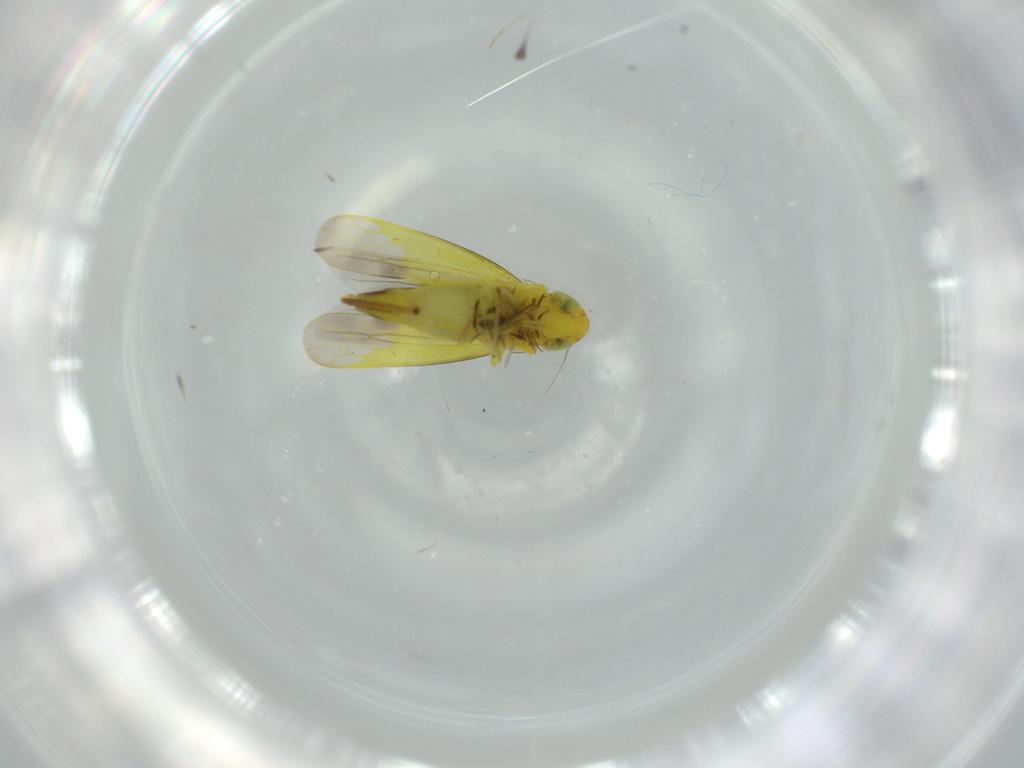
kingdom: Animalia
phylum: Arthropoda
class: Insecta
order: Hemiptera
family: Cicadellidae
